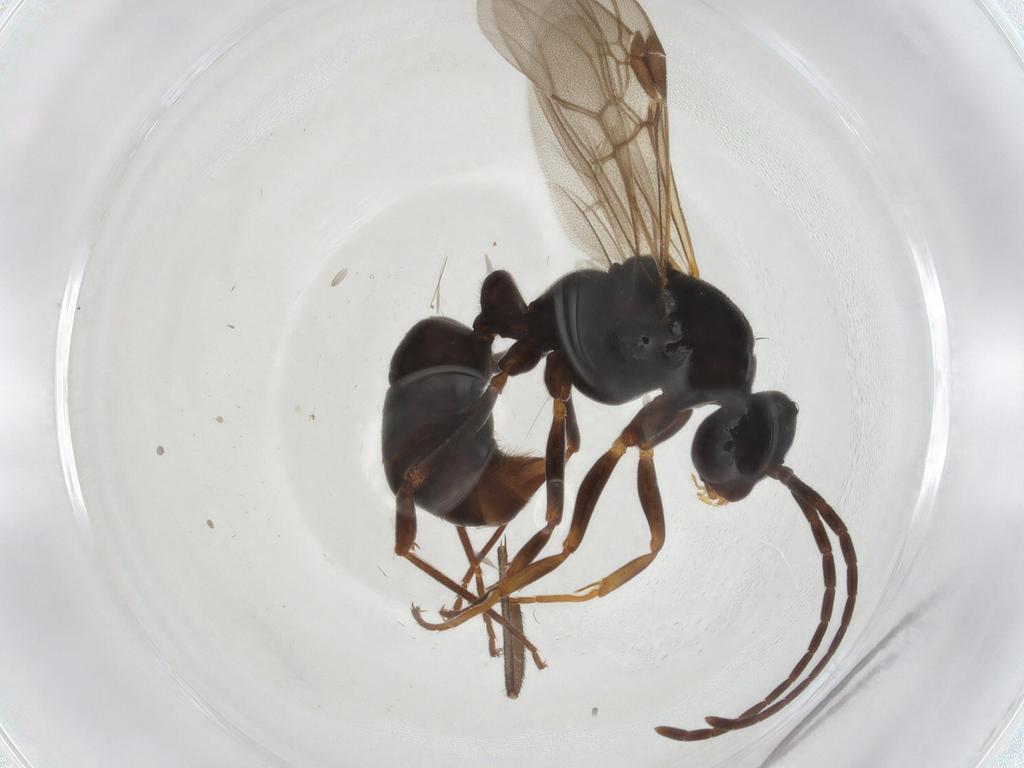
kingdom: Animalia
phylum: Arthropoda
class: Insecta
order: Hymenoptera
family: Formicidae
